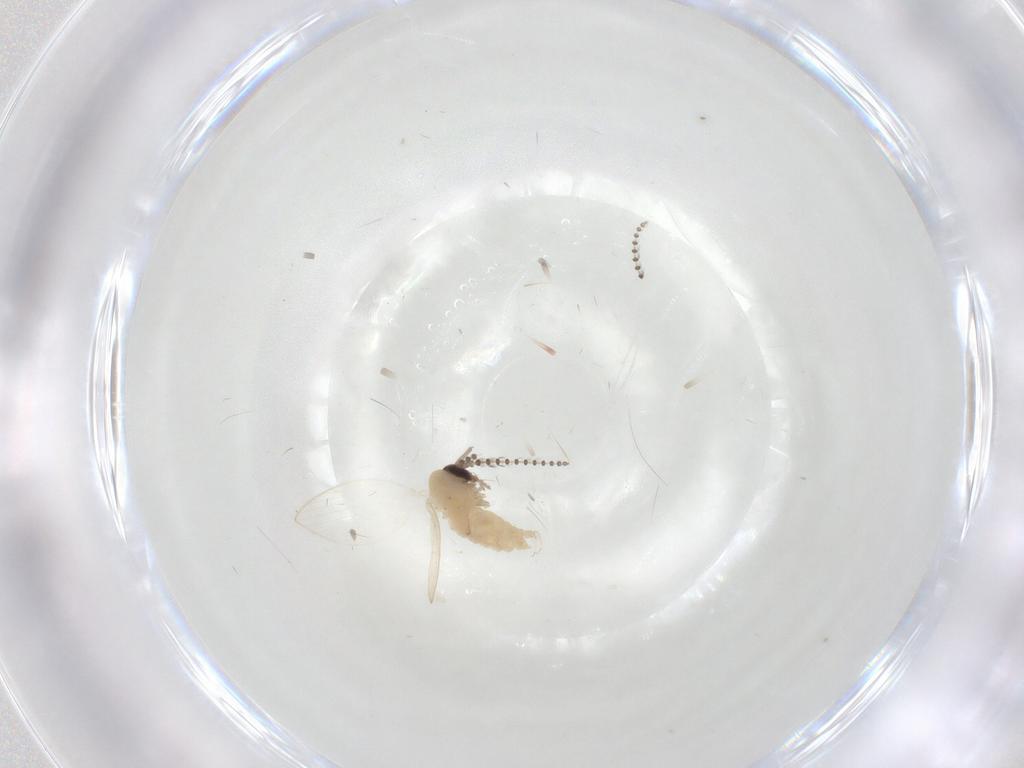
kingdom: Animalia
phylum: Arthropoda
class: Insecta
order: Diptera
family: Psychodidae
